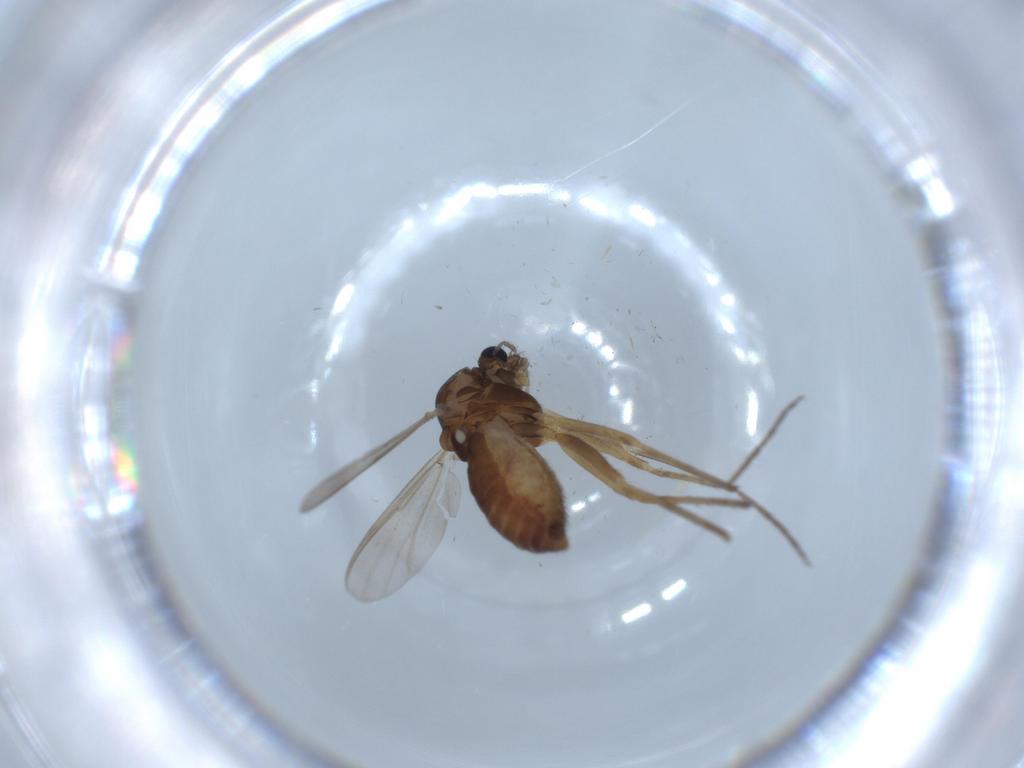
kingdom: Animalia
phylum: Arthropoda
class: Insecta
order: Diptera
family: Chironomidae
